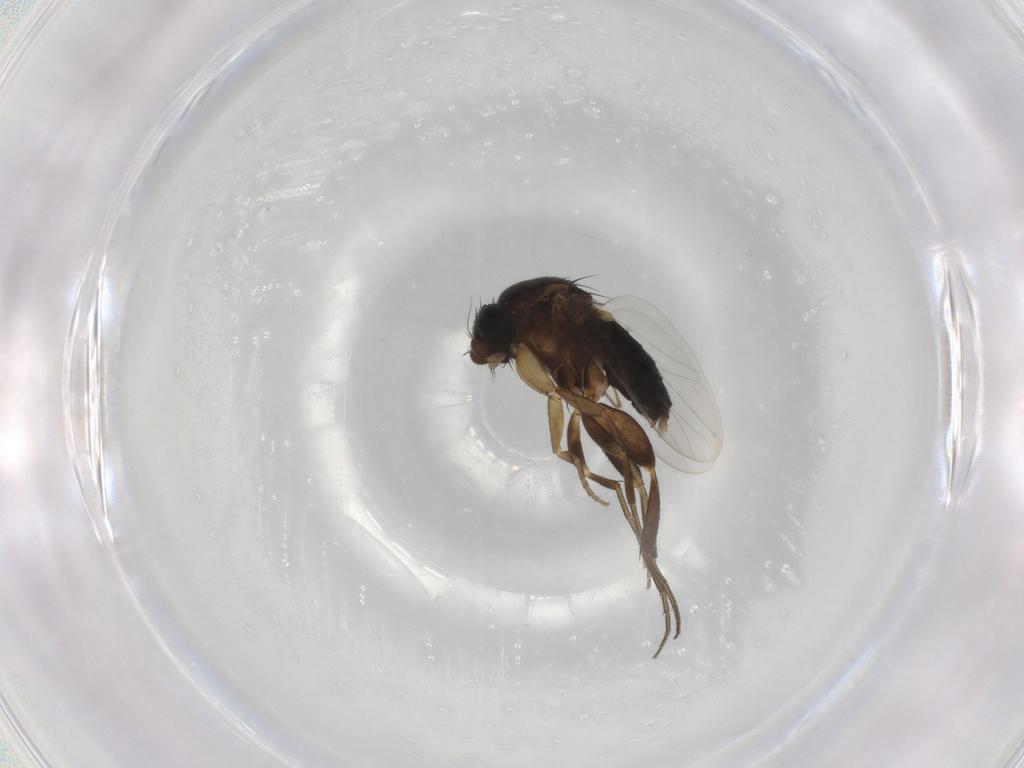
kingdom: Animalia
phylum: Arthropoda
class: Insecta
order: Diptera
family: Phoridae
